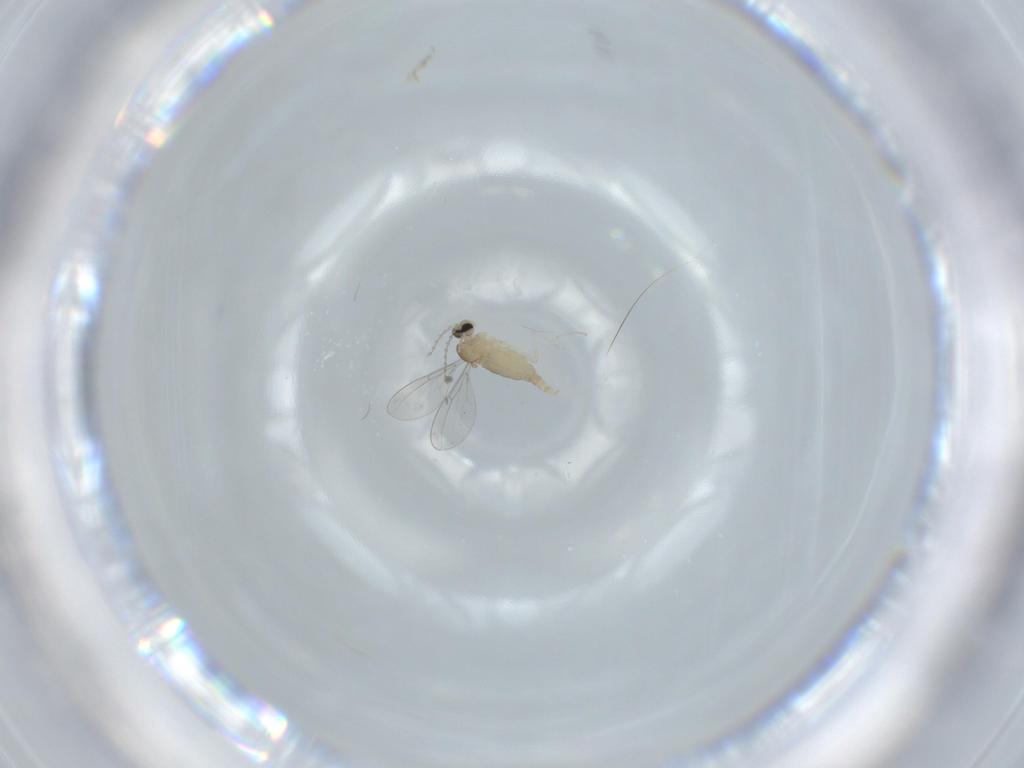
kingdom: Animalia
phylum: Arthropoda
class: Insecta
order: Diptera
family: Cecidomyiidae
